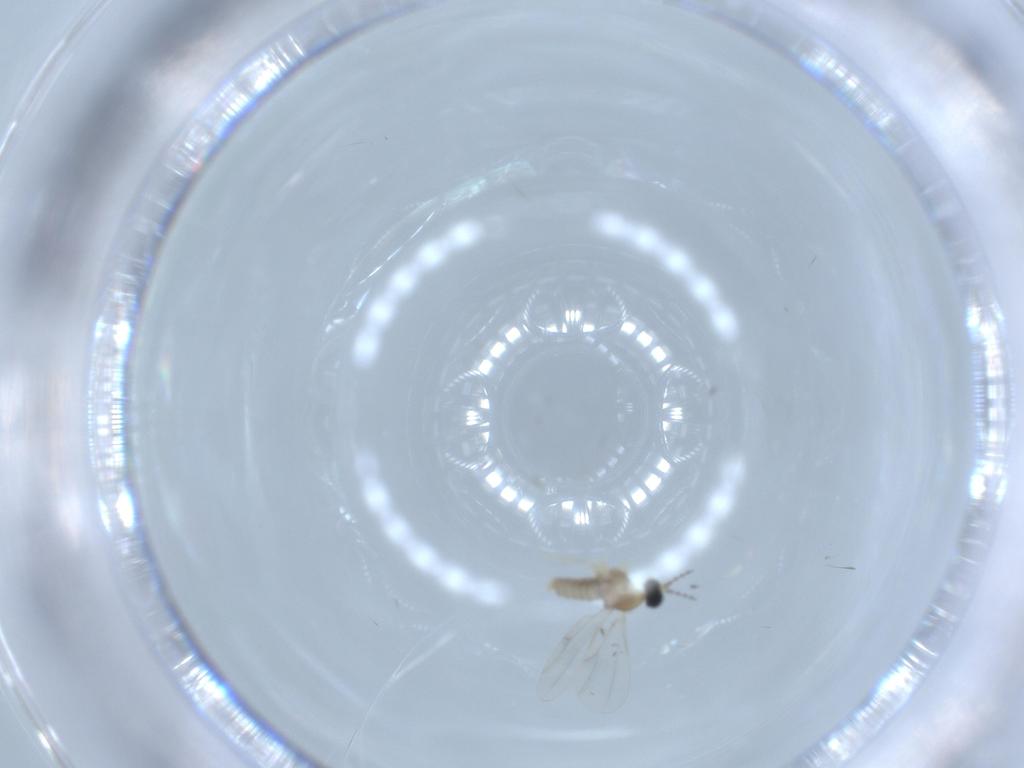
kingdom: Animalia
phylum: Arthropoda
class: Insecta
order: Diptera
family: Cecidomyiidae
